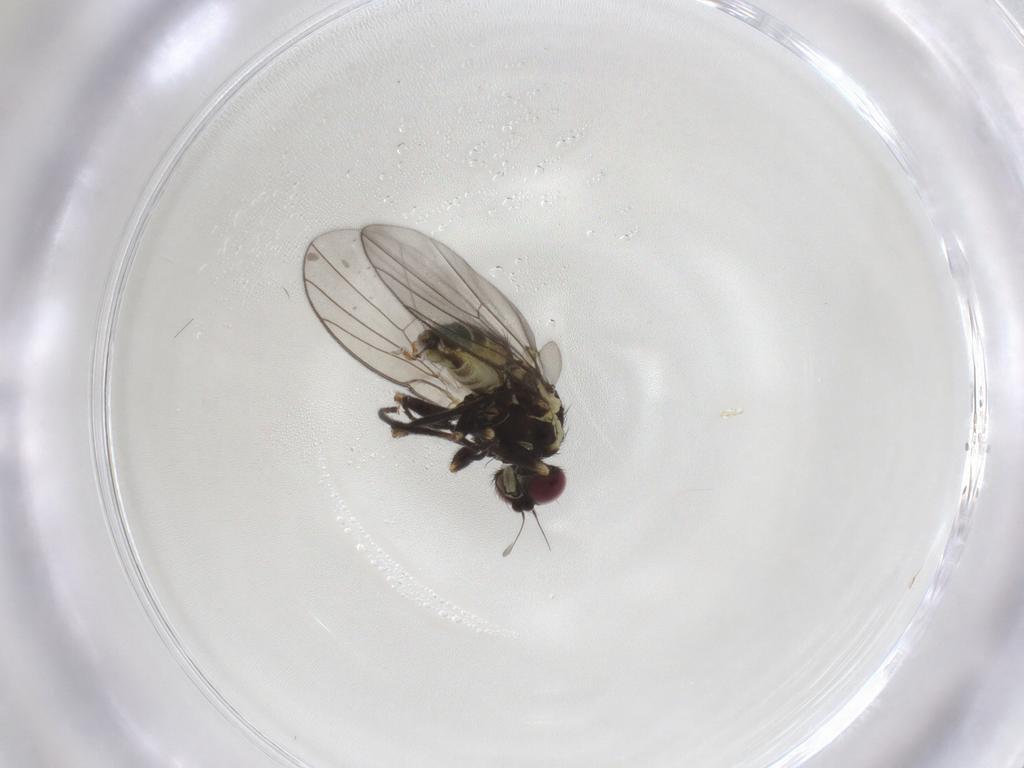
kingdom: Animalia
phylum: Arthropoda
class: Insecta
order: Diptera
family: Agromyzidae
